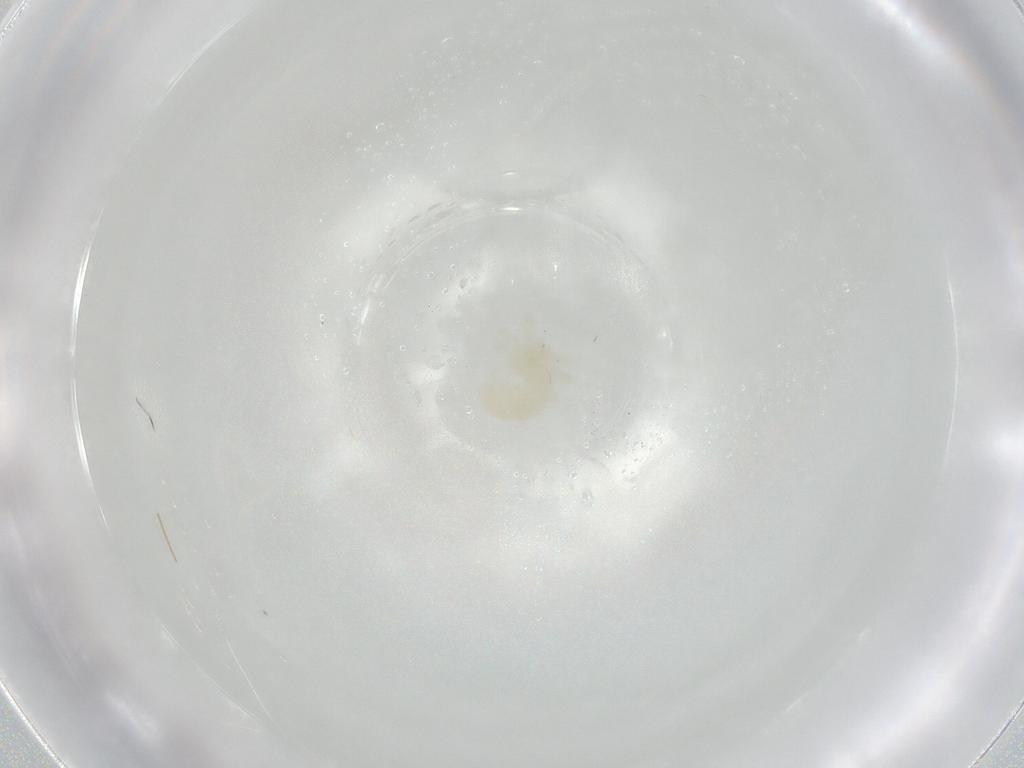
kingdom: Animalia
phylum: Arthropoda
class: Arachnida
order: Trombidiformes
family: Anystidae
